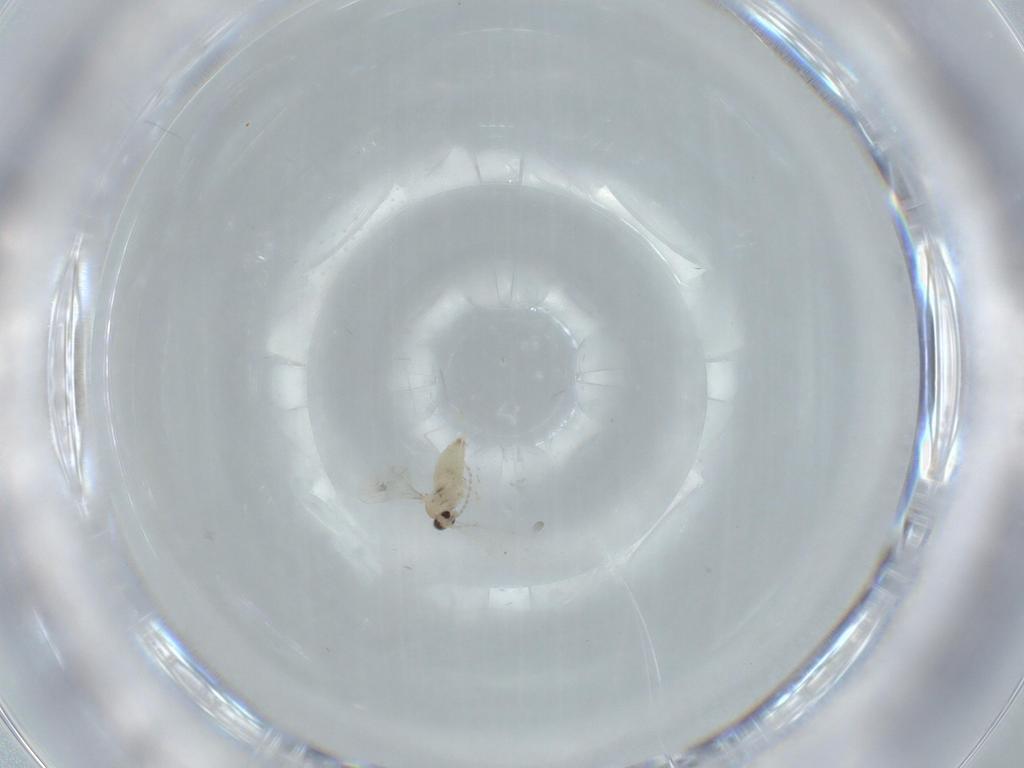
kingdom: Animalia
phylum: Arthropoda
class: Insecta
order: Diptera
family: Cecidomyiidae
